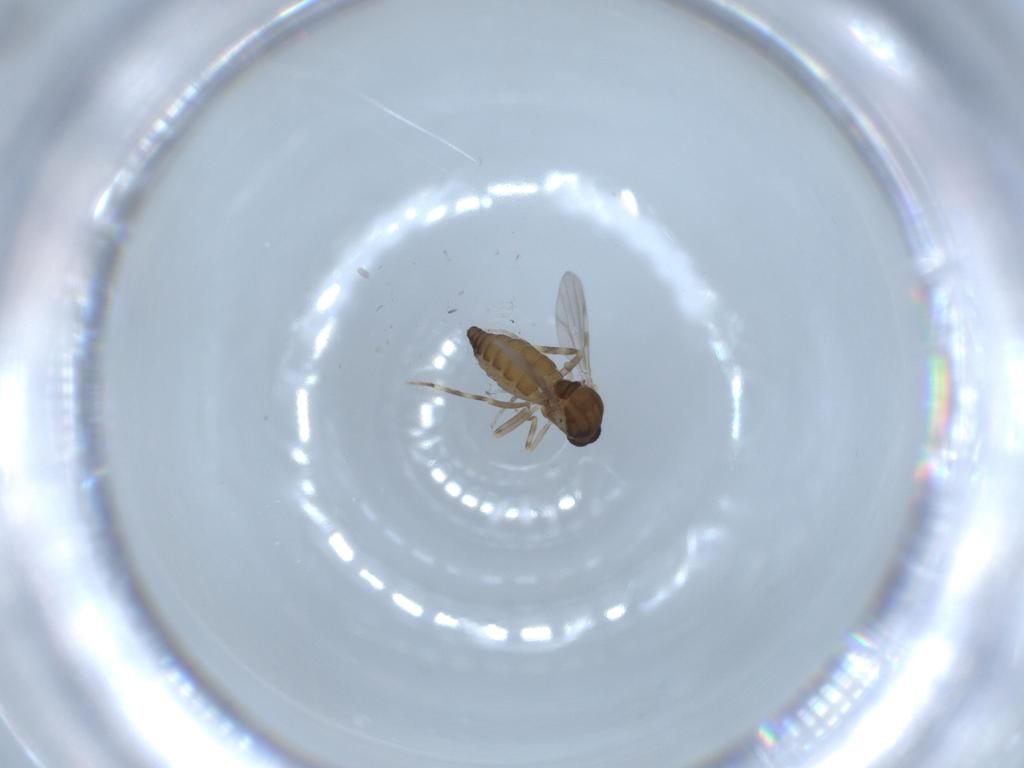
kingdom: Animalia
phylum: Arthropoda
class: Insecta
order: Diptera
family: Ceratopogonidae
